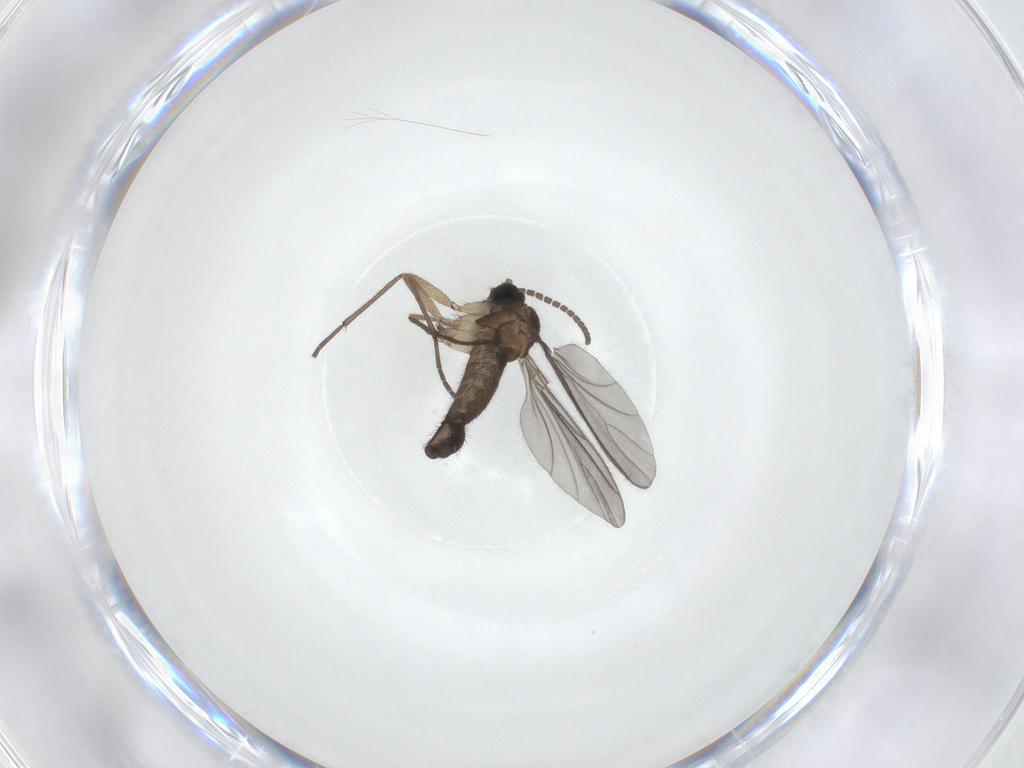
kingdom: Animalia
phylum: Arthropoda
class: Insecta
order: Diptera
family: Sciaridae
